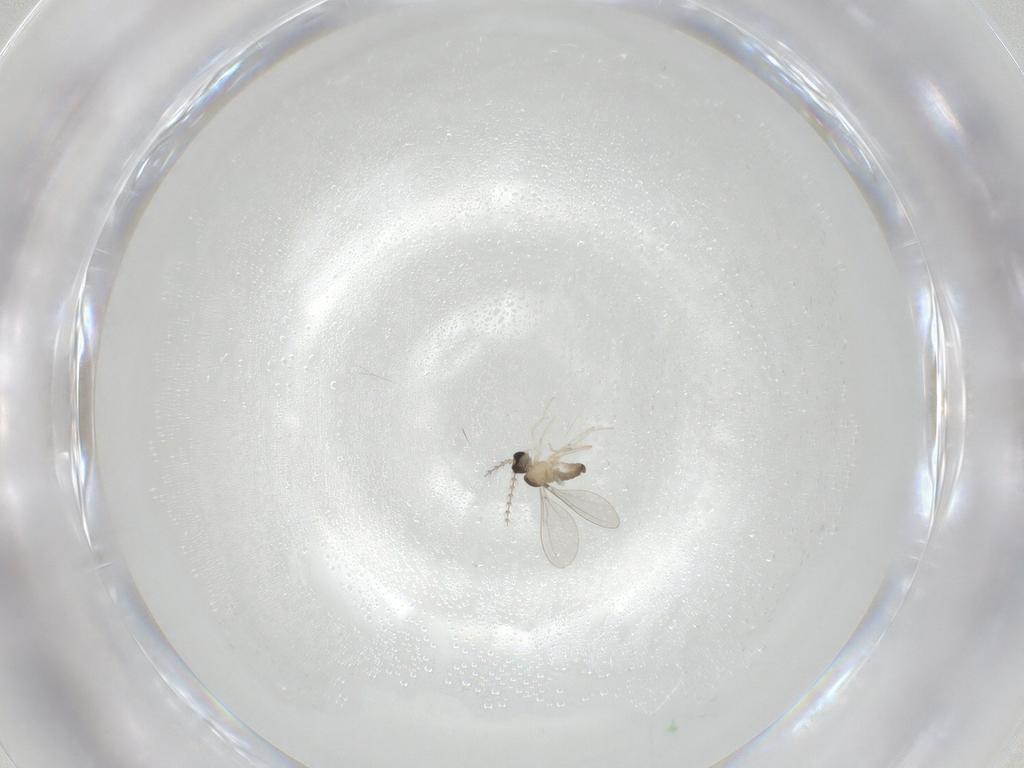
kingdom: Animalia
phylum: Arthropoda
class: Insecta
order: Diptera
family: Cecidomyiidae
